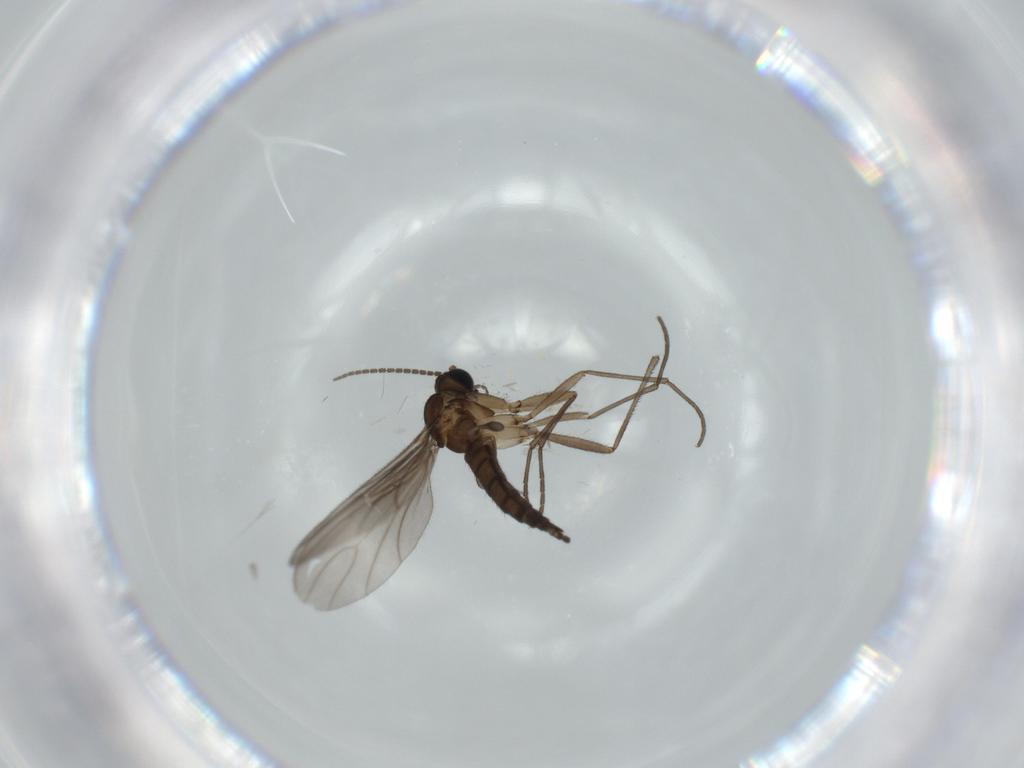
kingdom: Animalia
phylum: Arthropoda
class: Insecta
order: Diptera
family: Sciaridae
